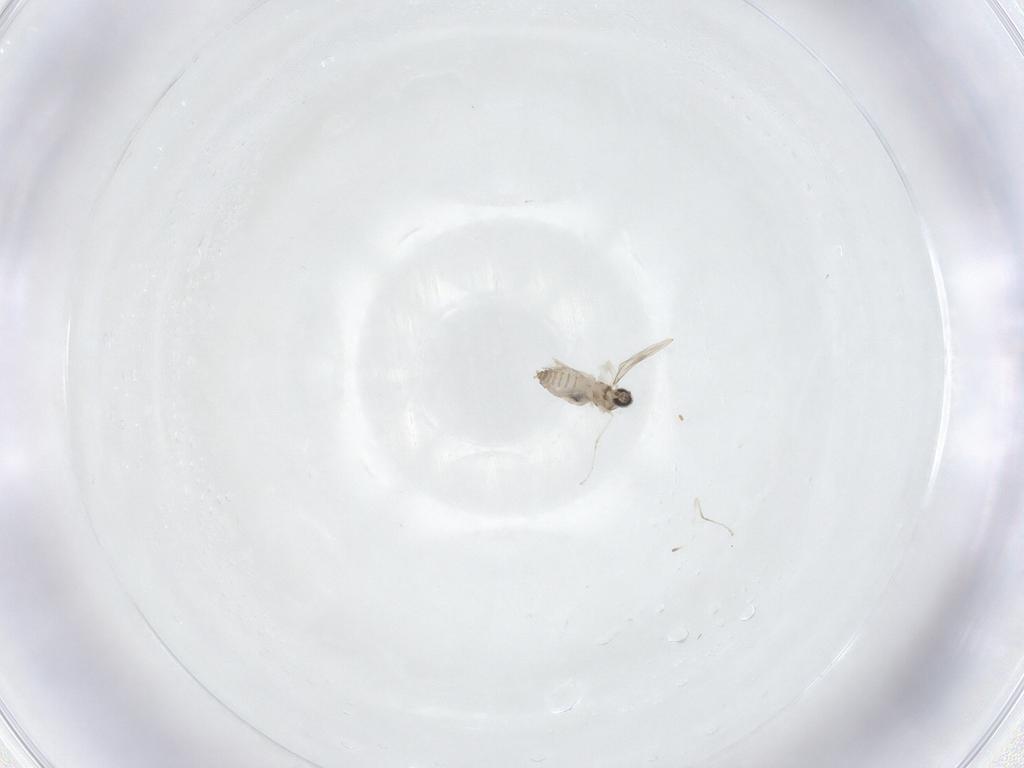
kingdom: Animalia
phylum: Arthropoda
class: Insecta
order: Diptera
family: Cecidomyiidae
